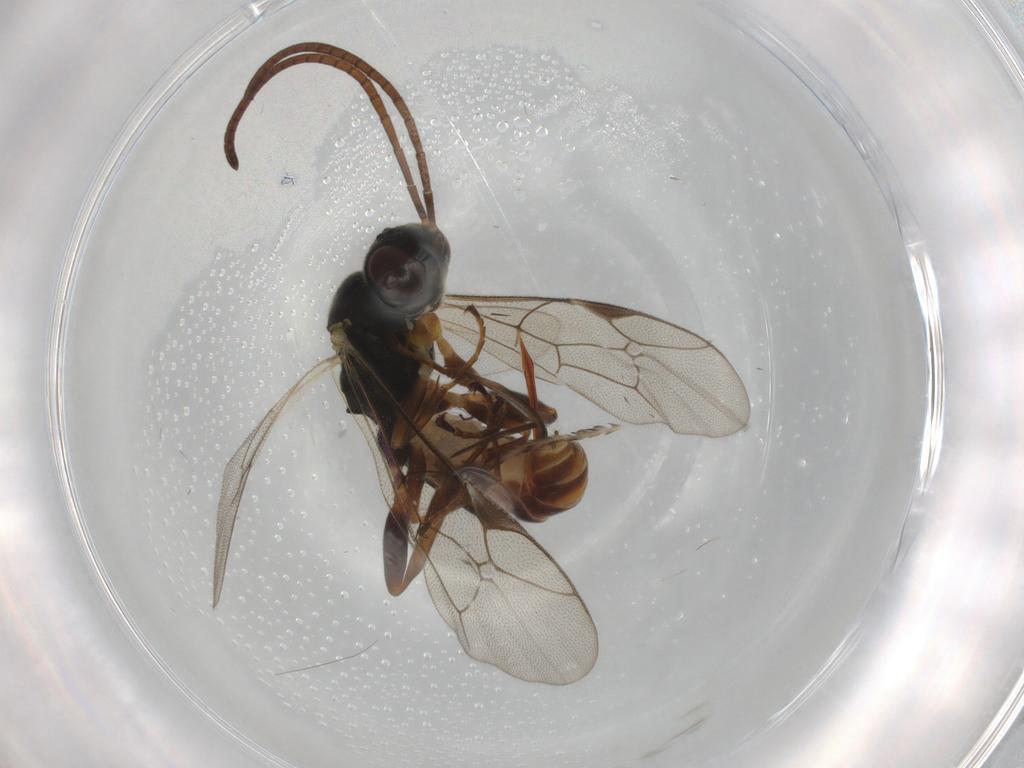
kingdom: Animalia
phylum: Arthropoda
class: Insecta
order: Hymenoptera
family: Ichneumonidae
